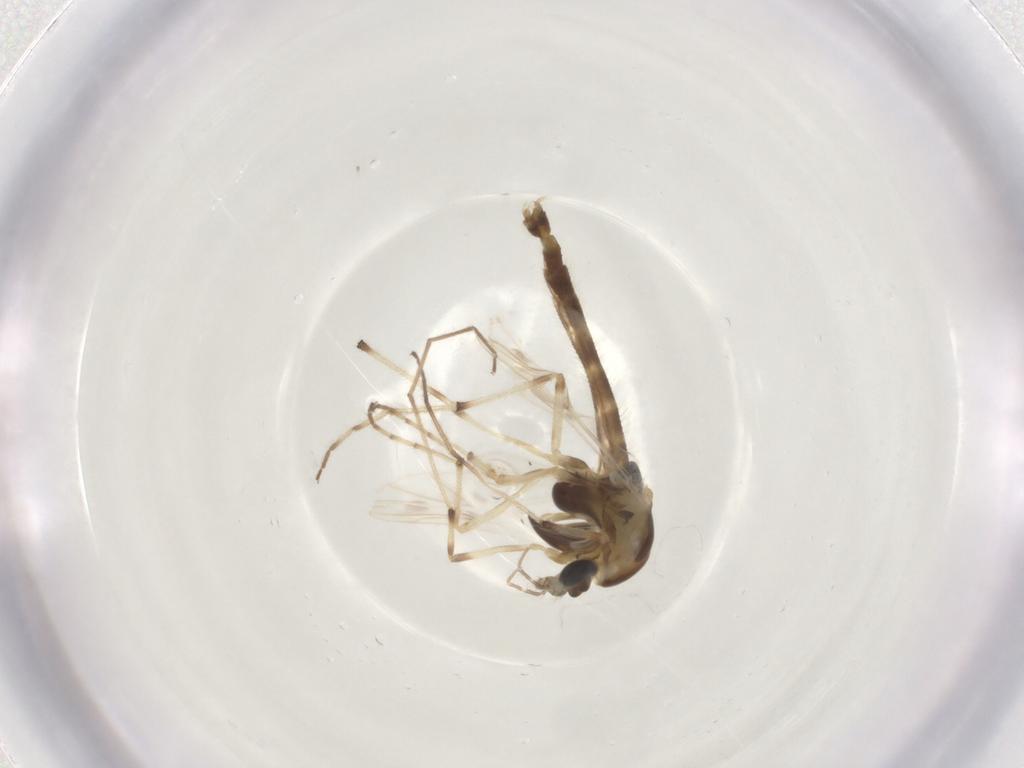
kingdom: Animalia
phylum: Arthropoda
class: Insecta
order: Diptera
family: Chironomidae
